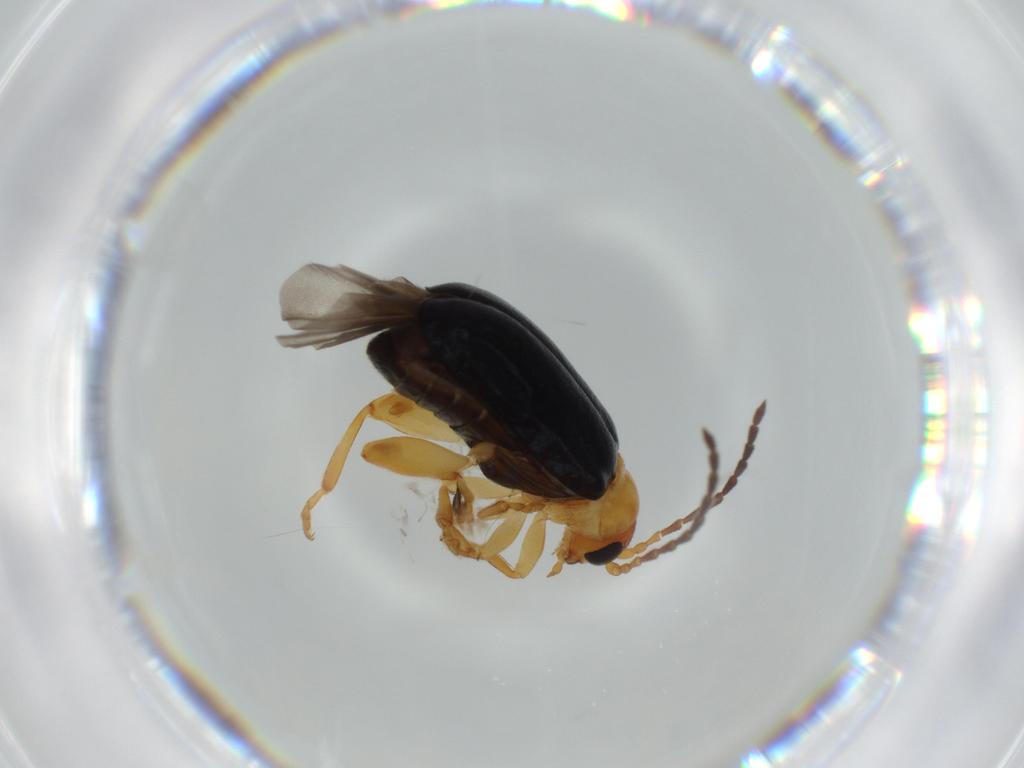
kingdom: Animalia
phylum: Arthropoda
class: Insecta
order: Coleoptera
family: Chrysomelidae
